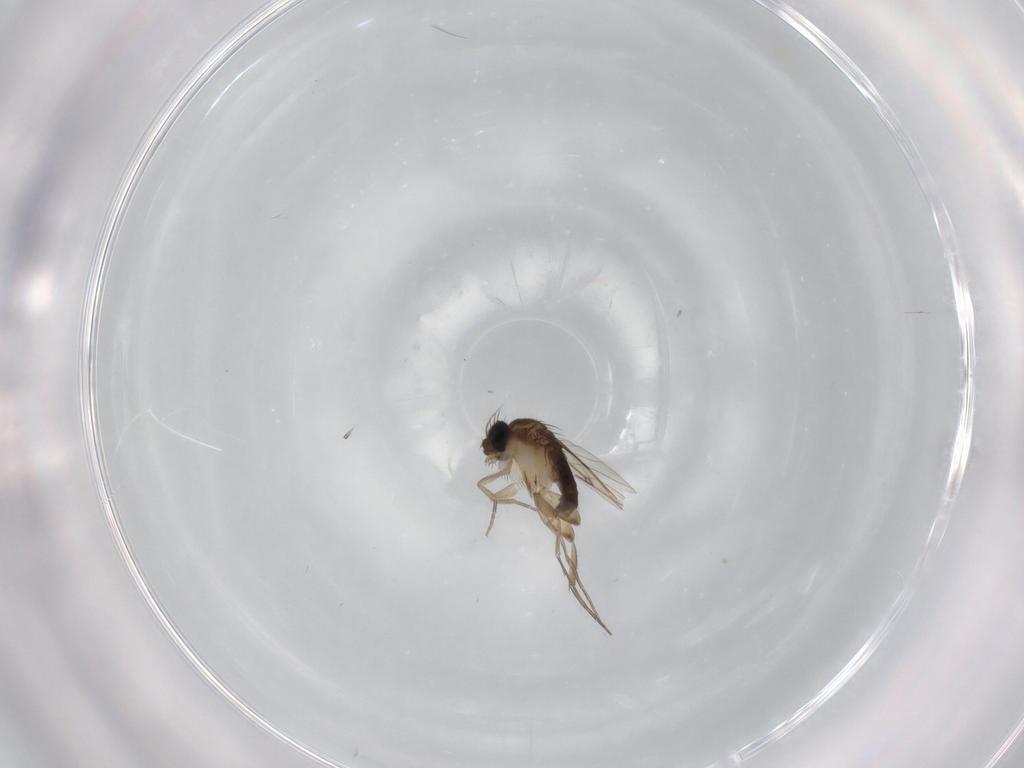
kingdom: Animalia
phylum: Arthropoda
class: Insecta
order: Diptera
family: Phoridae
